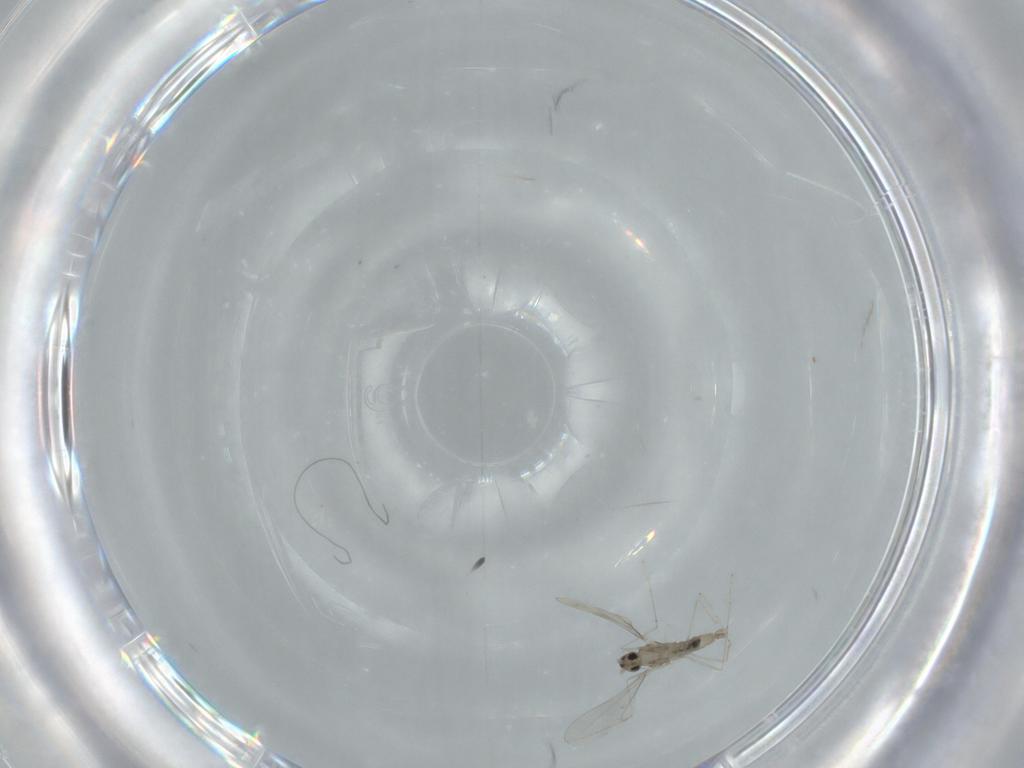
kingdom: Animalia
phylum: Arthropoda
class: Insecta
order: Diptera
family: Cecidomyiidae
